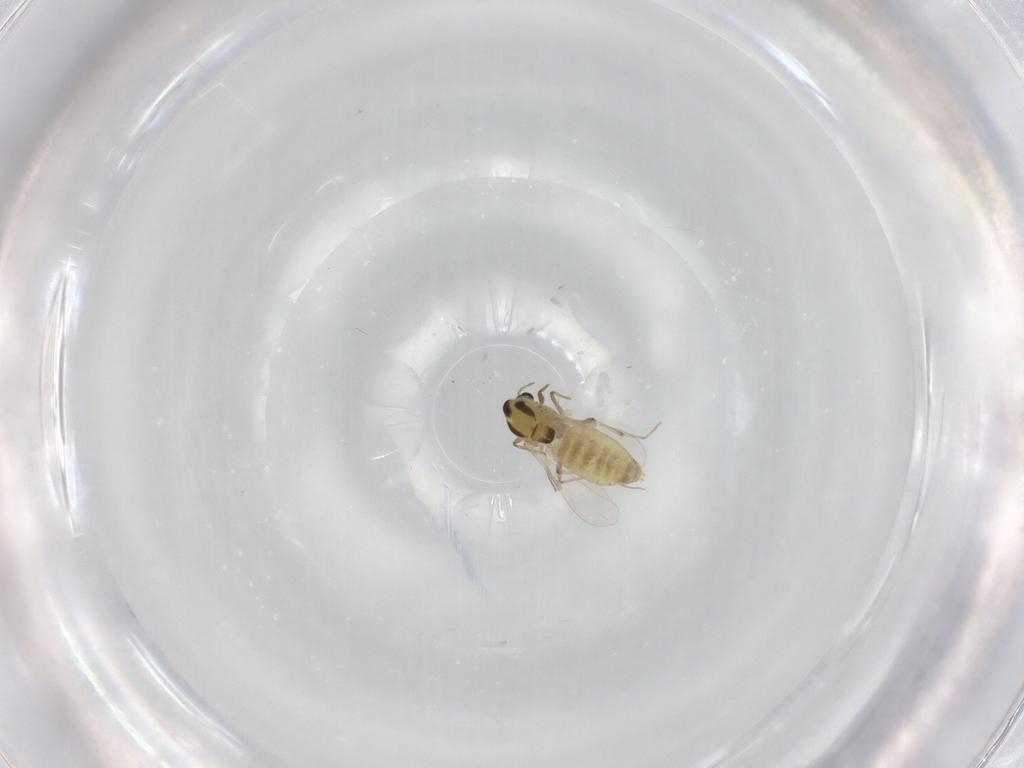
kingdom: Animalia
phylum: Arthropoda
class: Insecta
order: Diptera
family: Chironomidae
